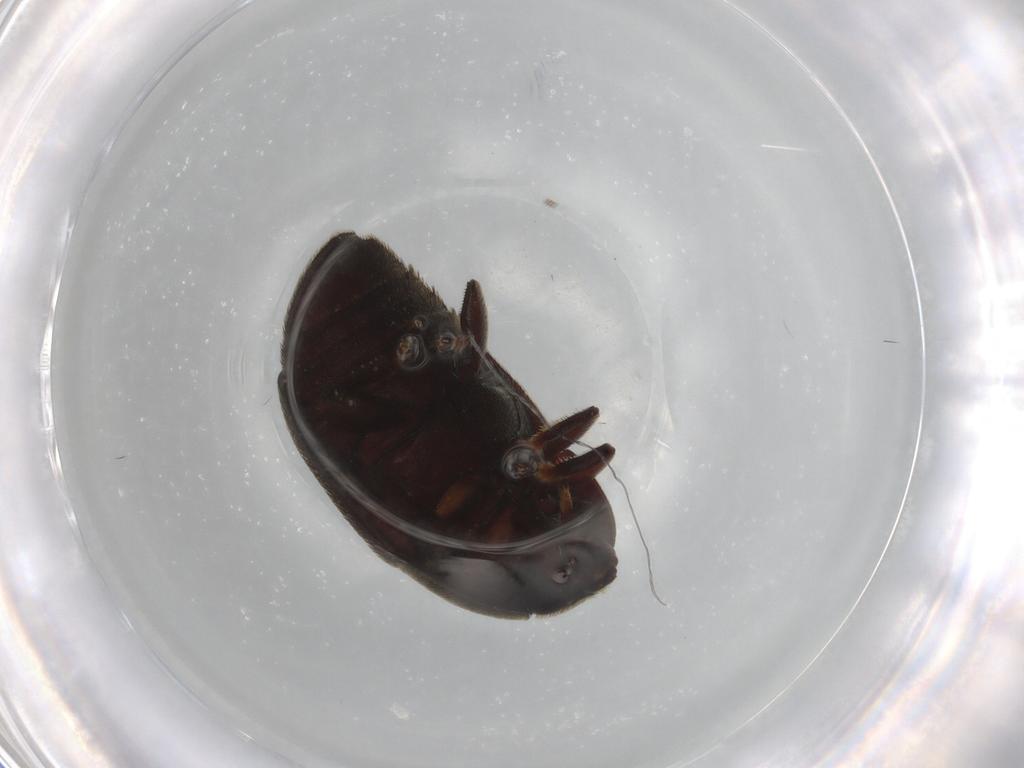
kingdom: Animalia
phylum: Arthropoda
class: Insecta
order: Coleoptera
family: Nitidulidae
